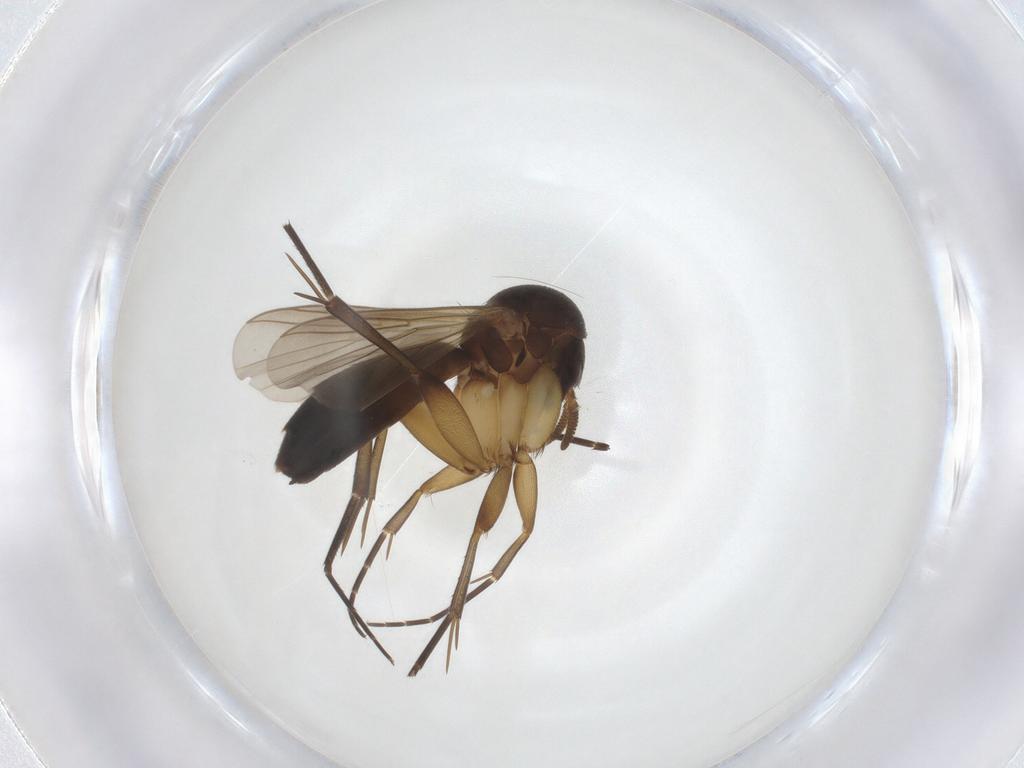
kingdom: Animalia
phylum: Arthropoda
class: Insecta
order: Diptera
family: Mycetophilidae
